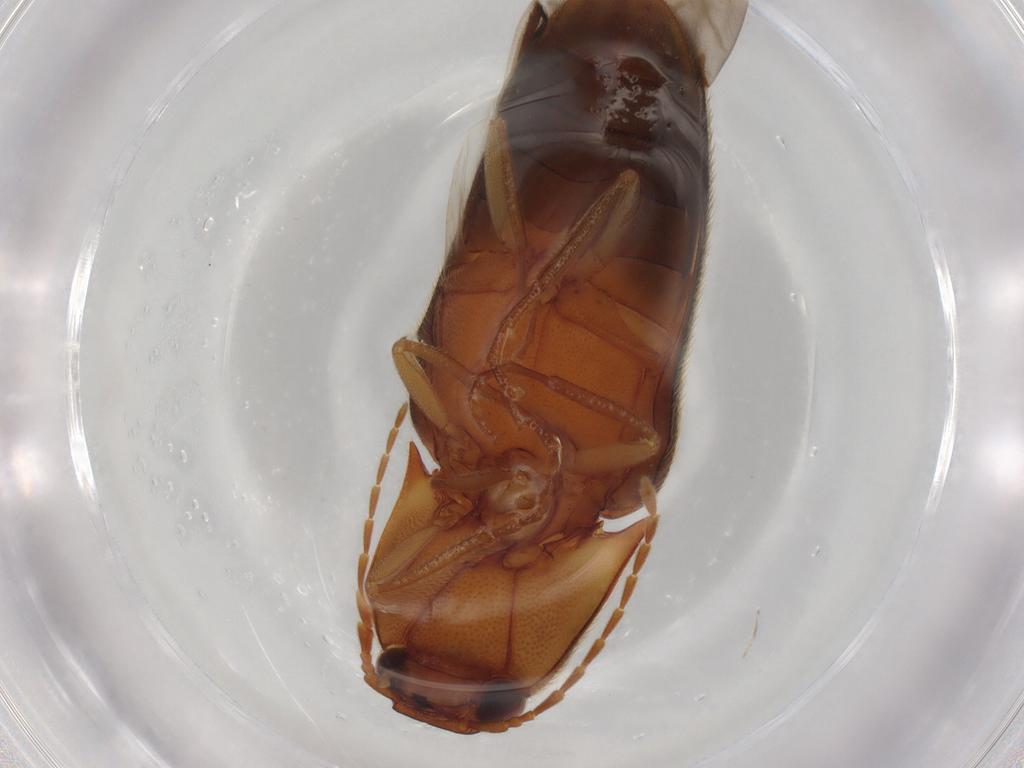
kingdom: Animalia
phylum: Arthropoda
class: Insecta
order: Coleoptera
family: Elateridae
